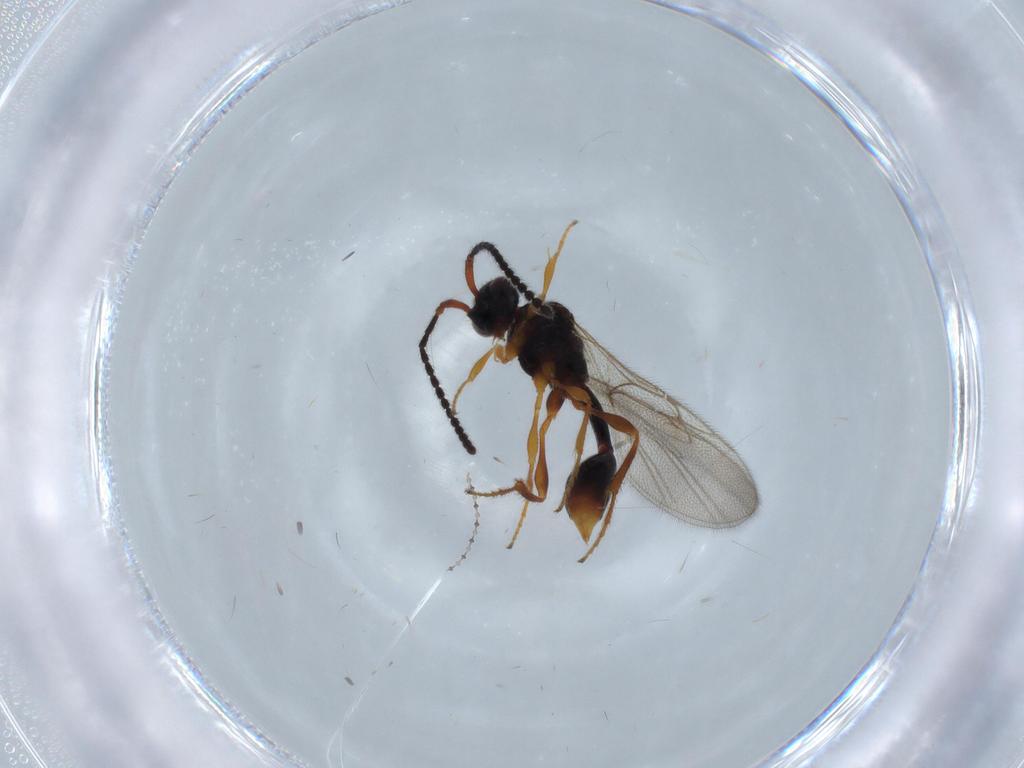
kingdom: Animalia
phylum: Arthropoda
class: Insecta
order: Hymenoptera
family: Diapriidae
